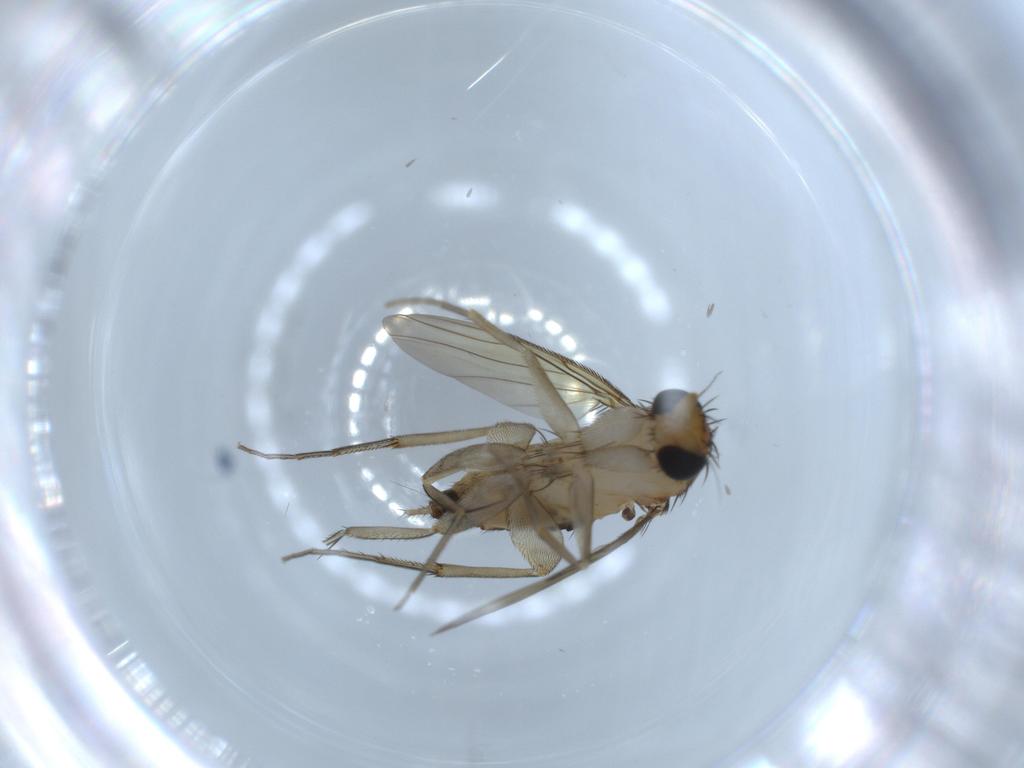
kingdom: Animalia
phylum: Arthropoda
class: Insecta
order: Diptera
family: Phoridae
